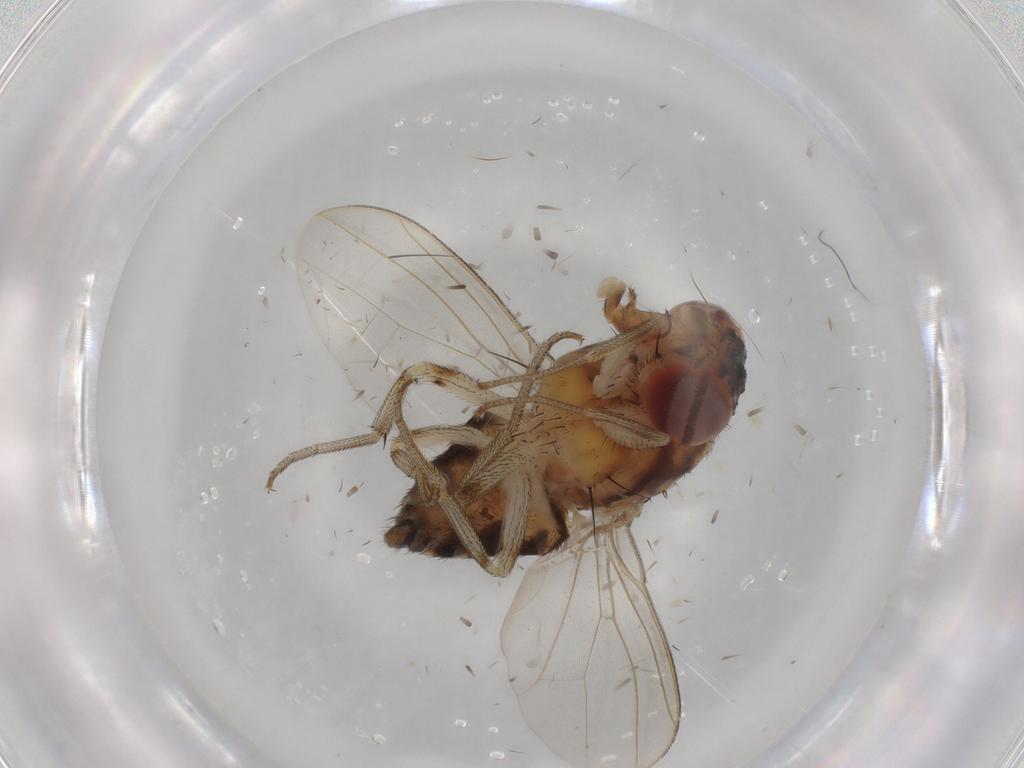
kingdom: Animalia
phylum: Arthropoda
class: Insecta
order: Diptera
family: Drosophilidae
